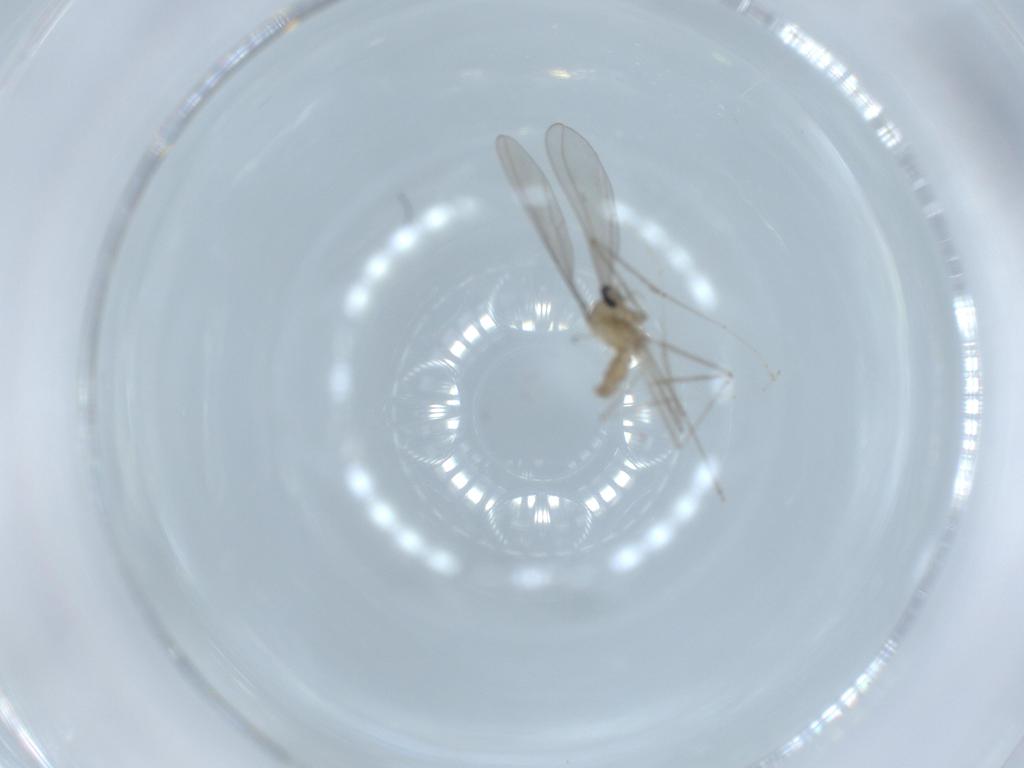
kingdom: Animalia
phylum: Arthropoda
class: Insecta
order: Diptera
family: Cecidomyiidae
